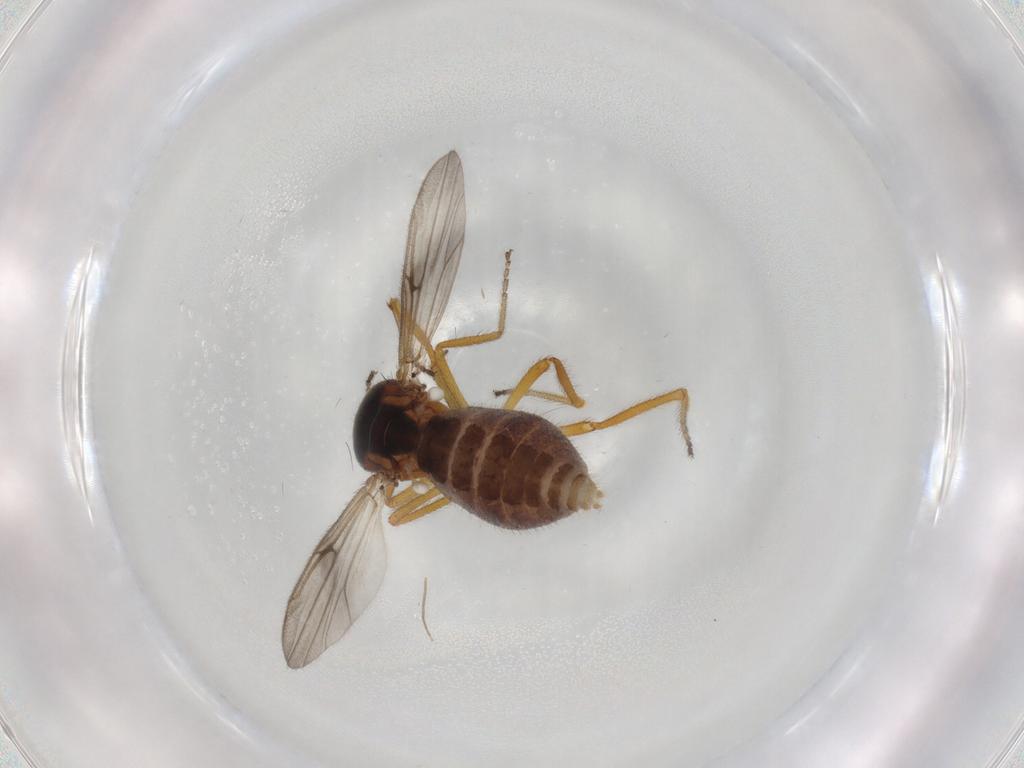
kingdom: Animalia
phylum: Arthropoda
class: Insecta
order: Diptera
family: Ceratopogonidae
